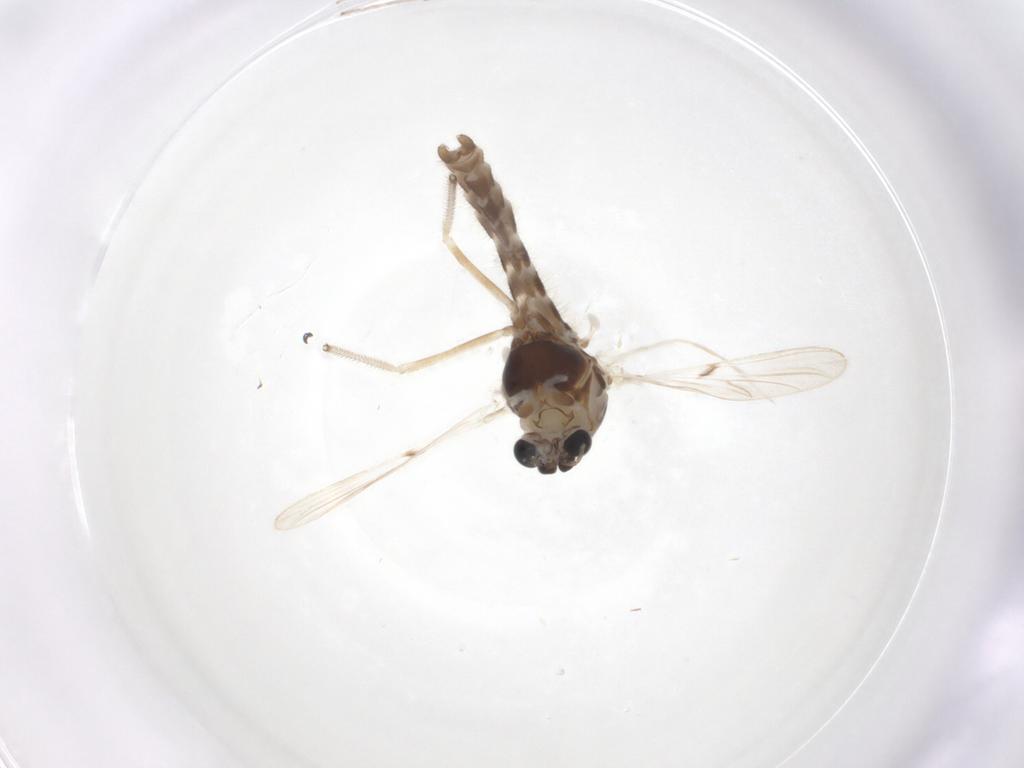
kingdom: Animalia
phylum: Arthropoda
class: Insecta
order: Diptera
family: Chironomidae
